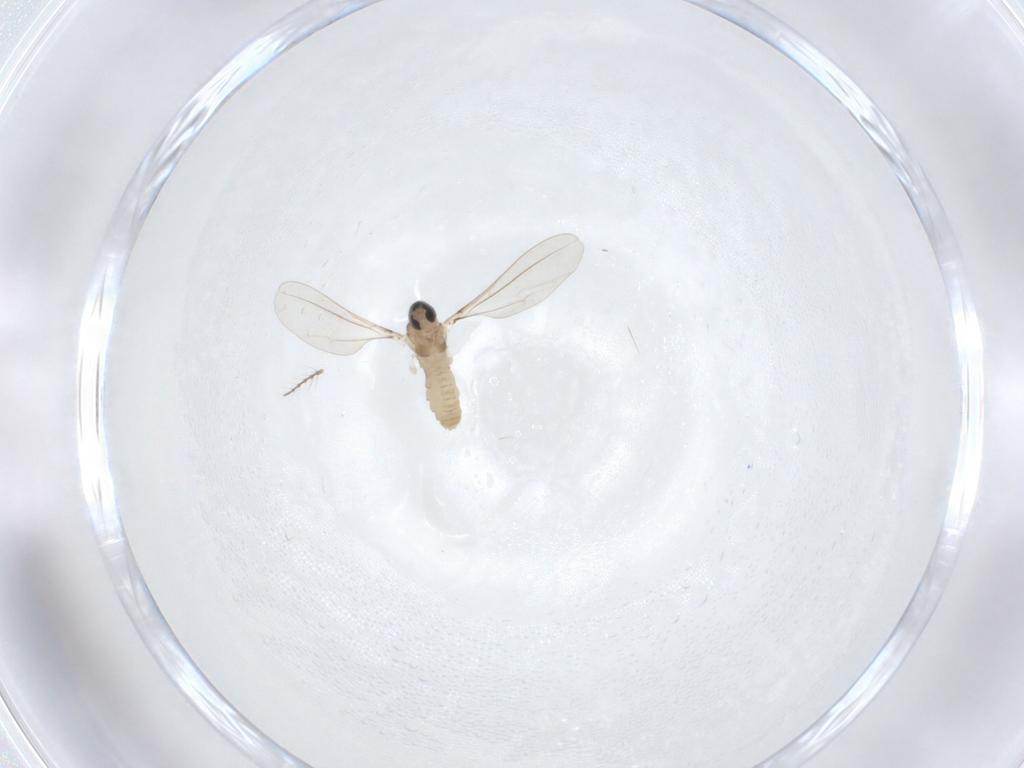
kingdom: Animalia
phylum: Arthropoda
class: Insecta
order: Diptera
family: Cecidomyiidae
